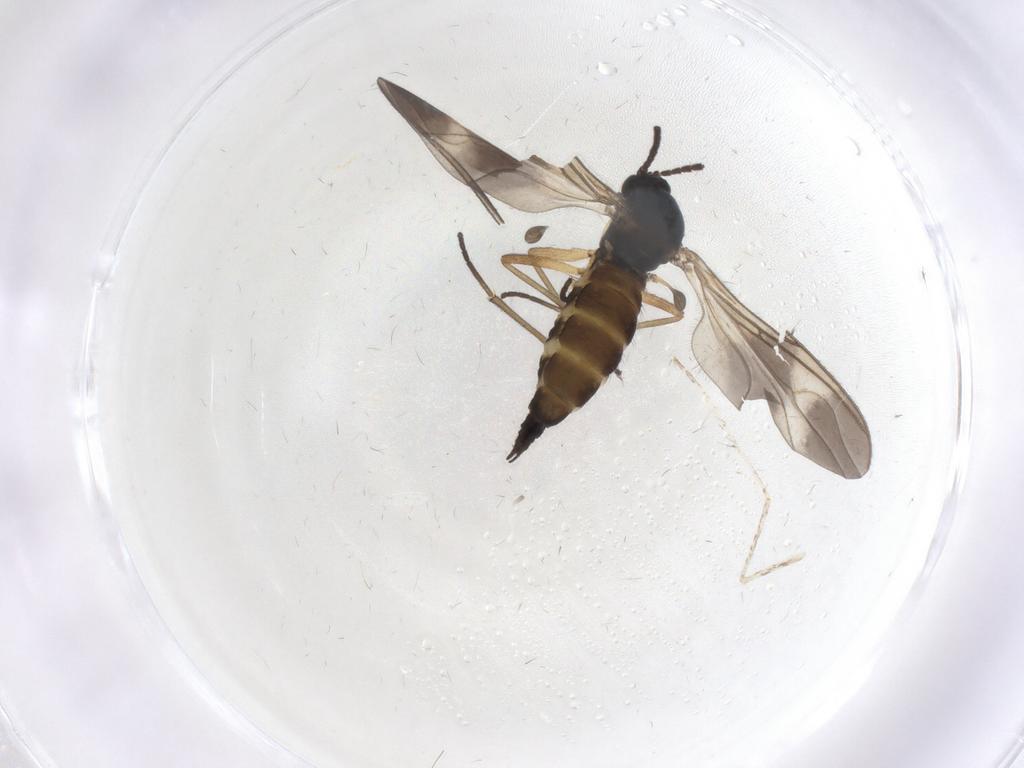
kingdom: Animalia
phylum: Arthropoda
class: Insecta
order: Diptera
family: Sciaridae
